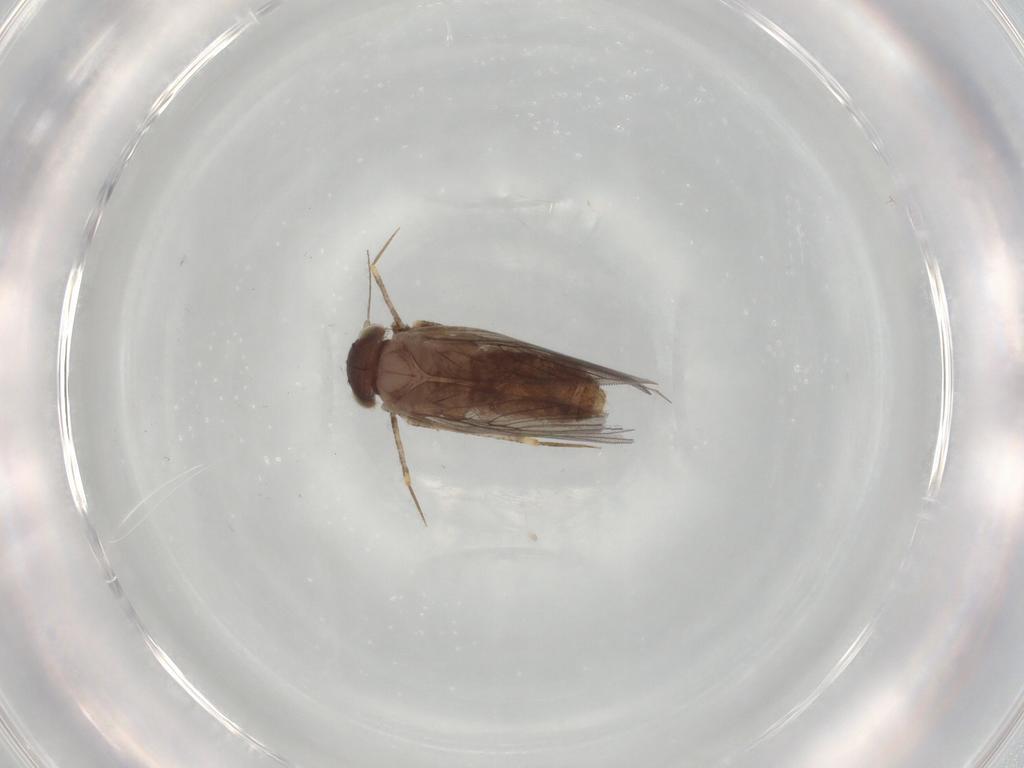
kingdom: Animalia
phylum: Arthropoda
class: Insecta
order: Psocodea
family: Lepidopsocidae
